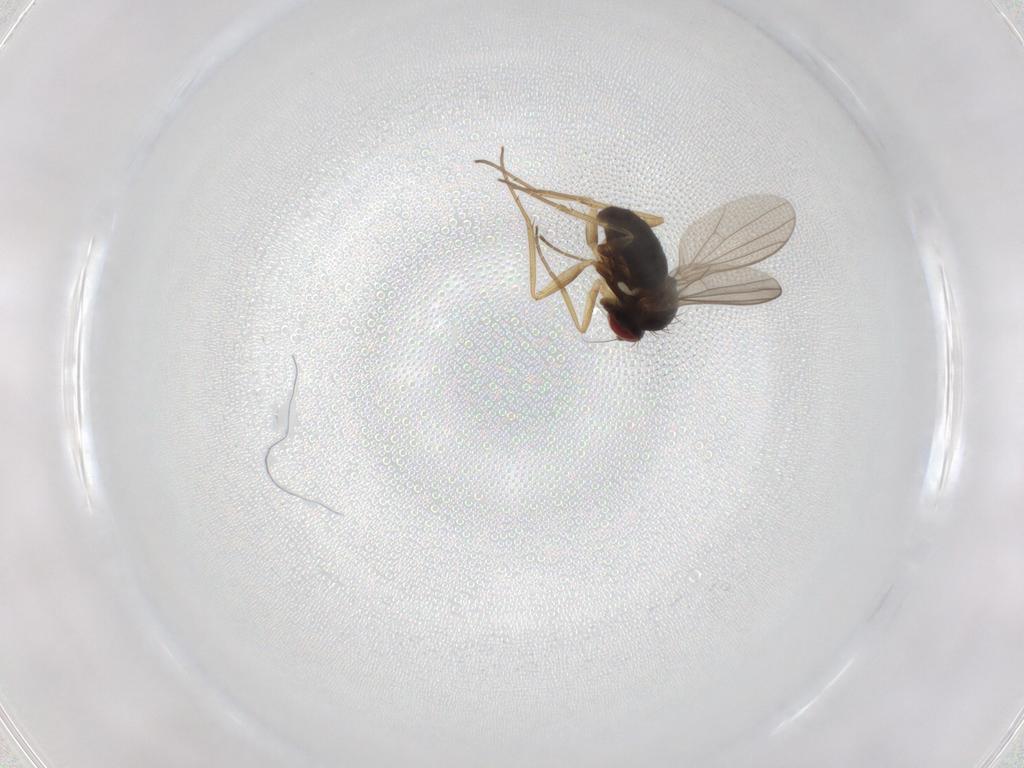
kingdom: Animalia
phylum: Arthropoda
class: Insecta
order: Diptera
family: Dolichopodidae
